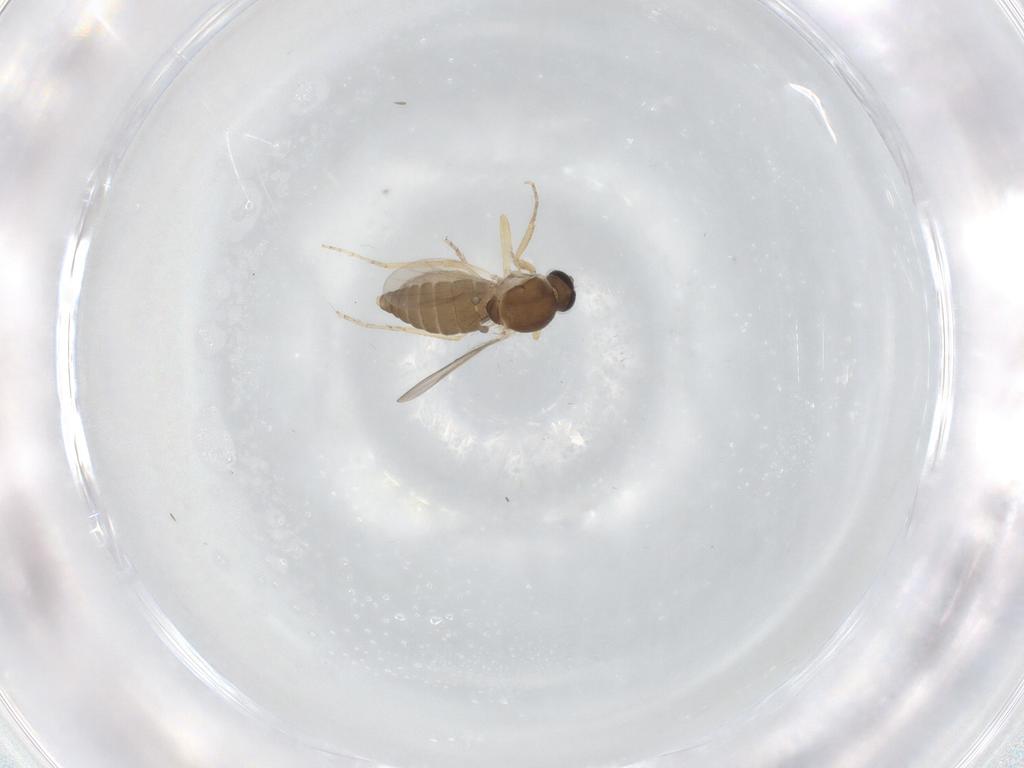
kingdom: Animalia
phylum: Arthropoda
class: Insecta
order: Diptera
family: Ceratopogonidae
